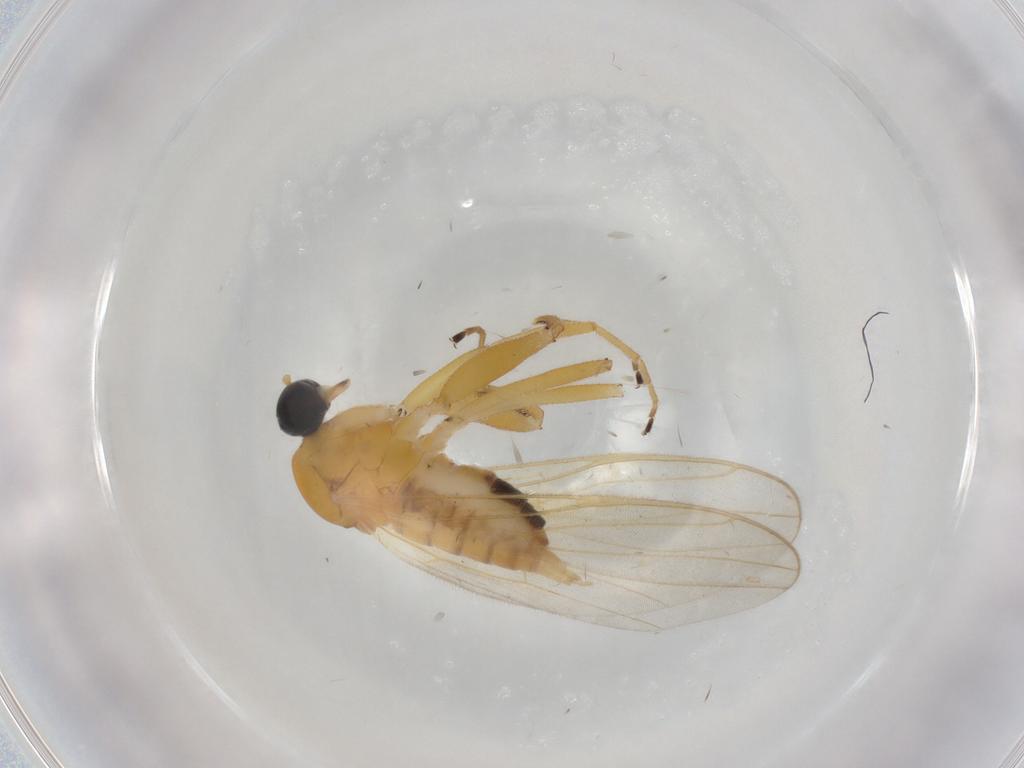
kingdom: Animalia
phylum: Arthropoda
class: Insecta
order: Diptera
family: Hybotidae
